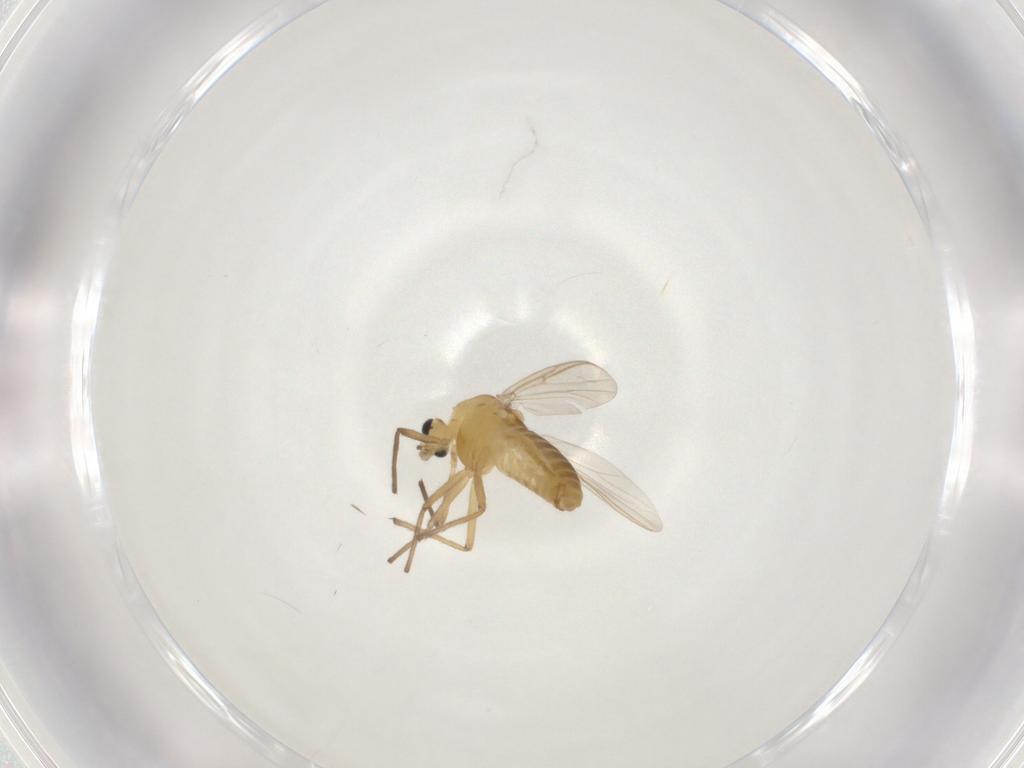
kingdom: Animalia
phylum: Arthropoda
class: Insecta
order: Diptera
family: Chironomidae
